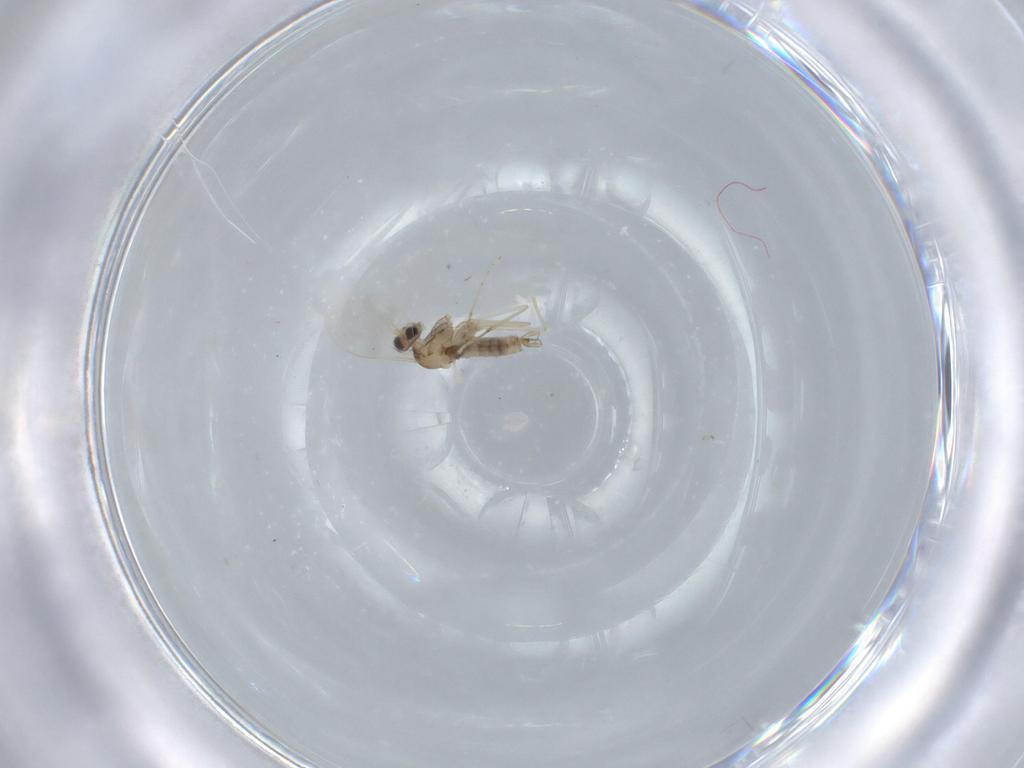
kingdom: Animalia
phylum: Arthropoda
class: Insecta
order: Diptera
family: Cecidomyiidae
